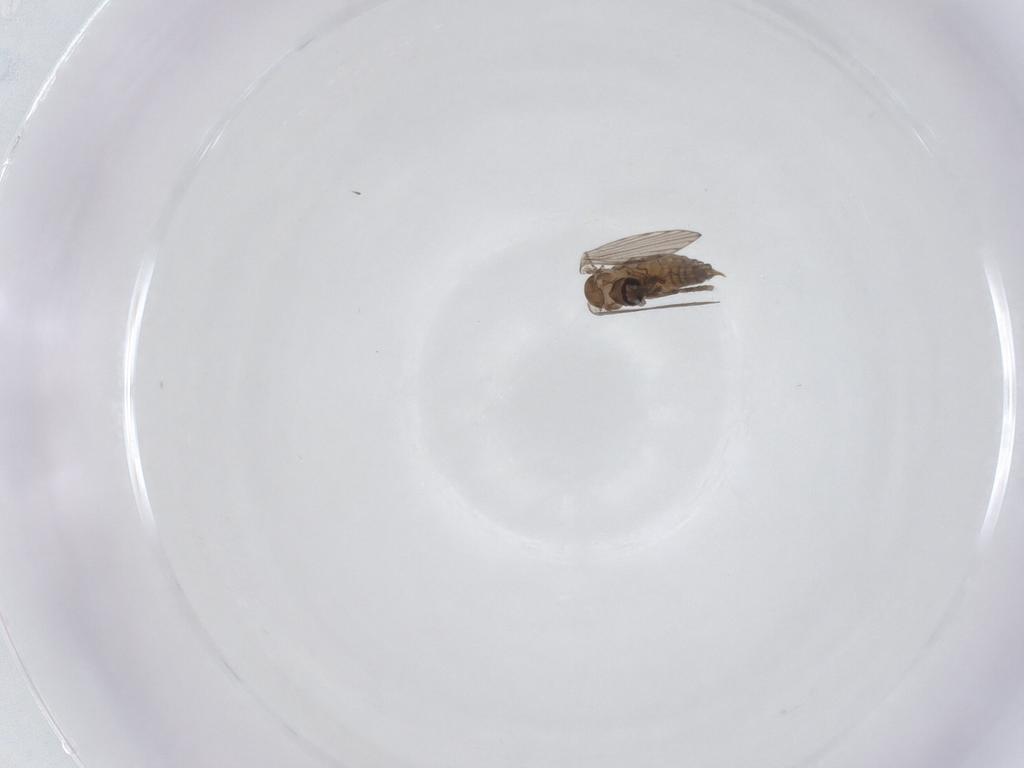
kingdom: Animalia
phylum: Arthropoda
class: Insecta
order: Diptera
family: Psychodidae
